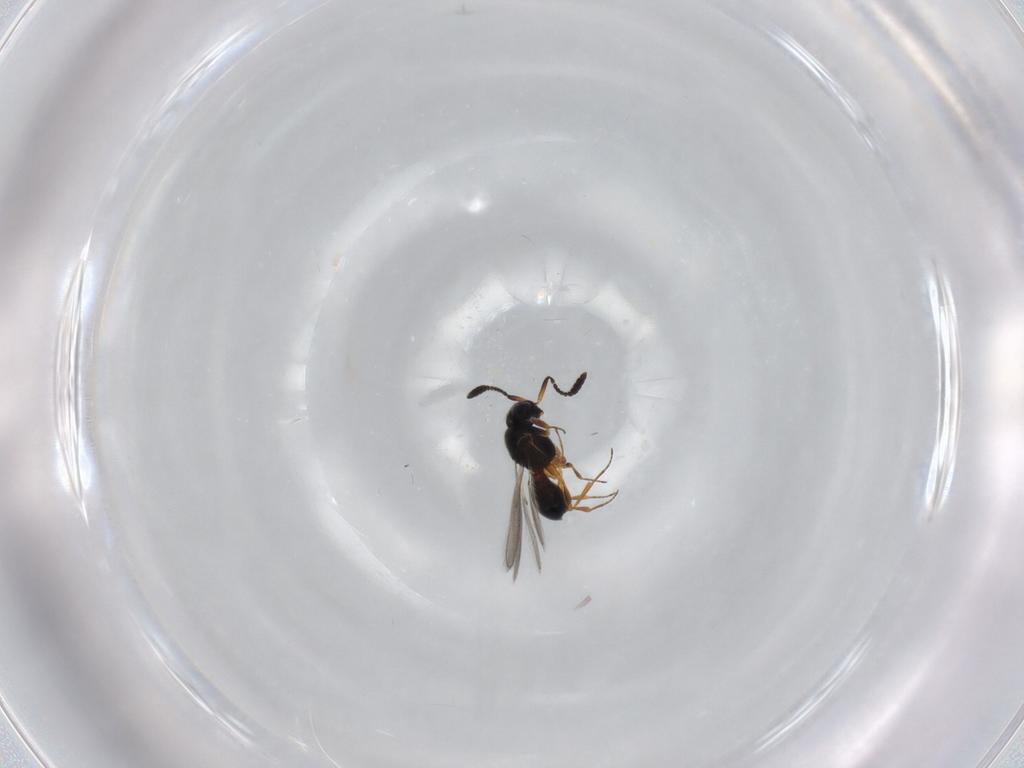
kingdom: Animalia
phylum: Arthropoda
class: Insecta
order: Hymenoptera
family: Scelionidae
